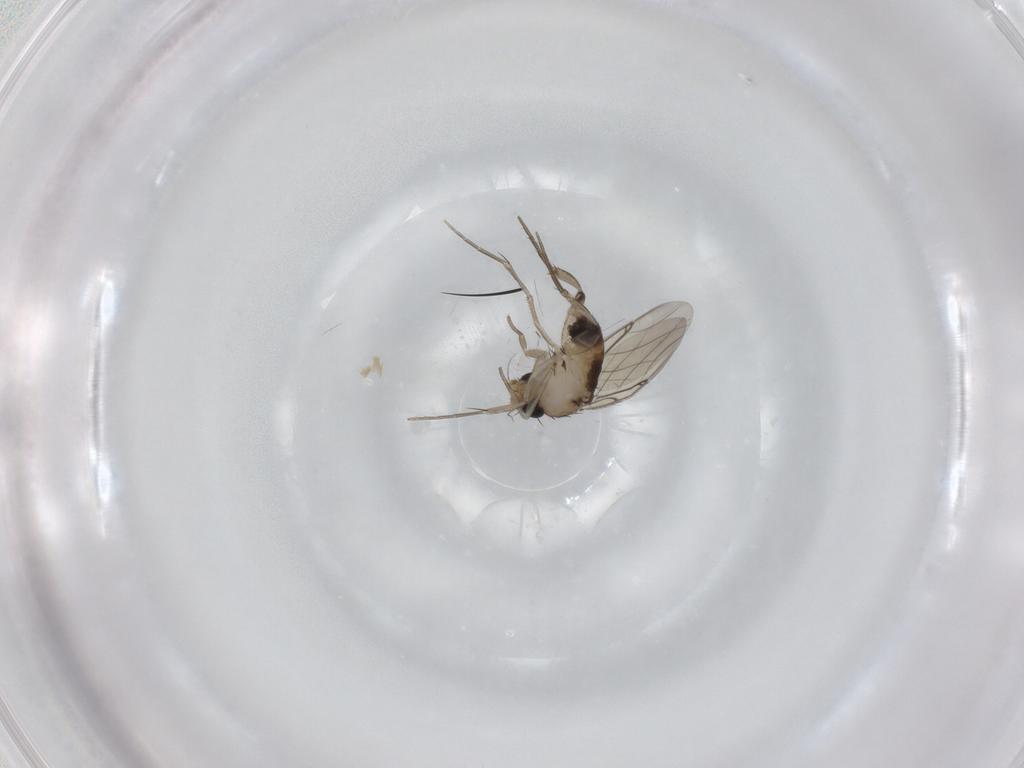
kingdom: Animalia
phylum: Arthropoda
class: Insecta
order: Diptera
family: Phoridae
